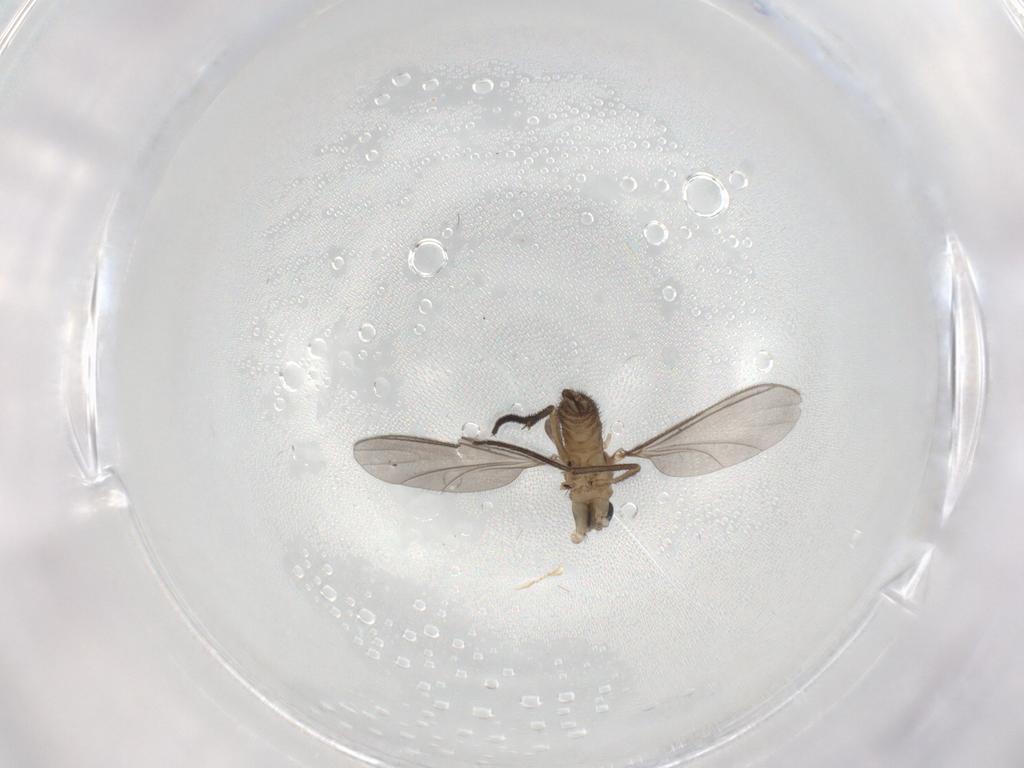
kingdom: Animalia
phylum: Arthropoda
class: Insecta
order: Diptera
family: Sciaridae
